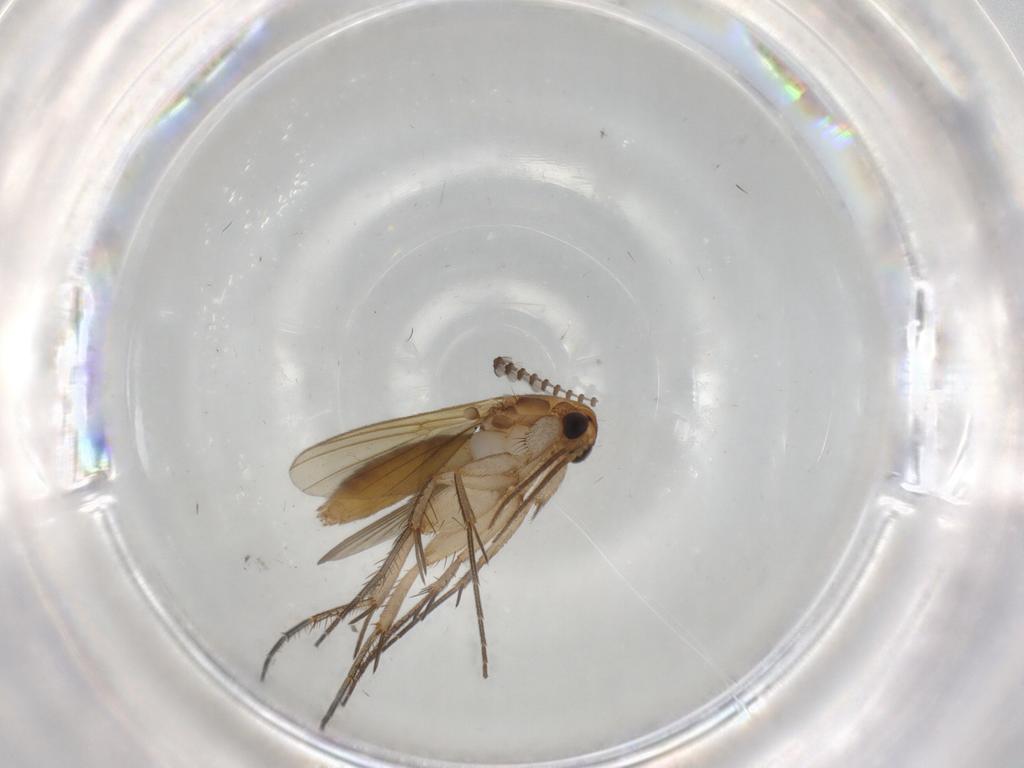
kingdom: Animalia
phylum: Arthropoda
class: Insecta
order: Diptera
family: Mycetophilidae
